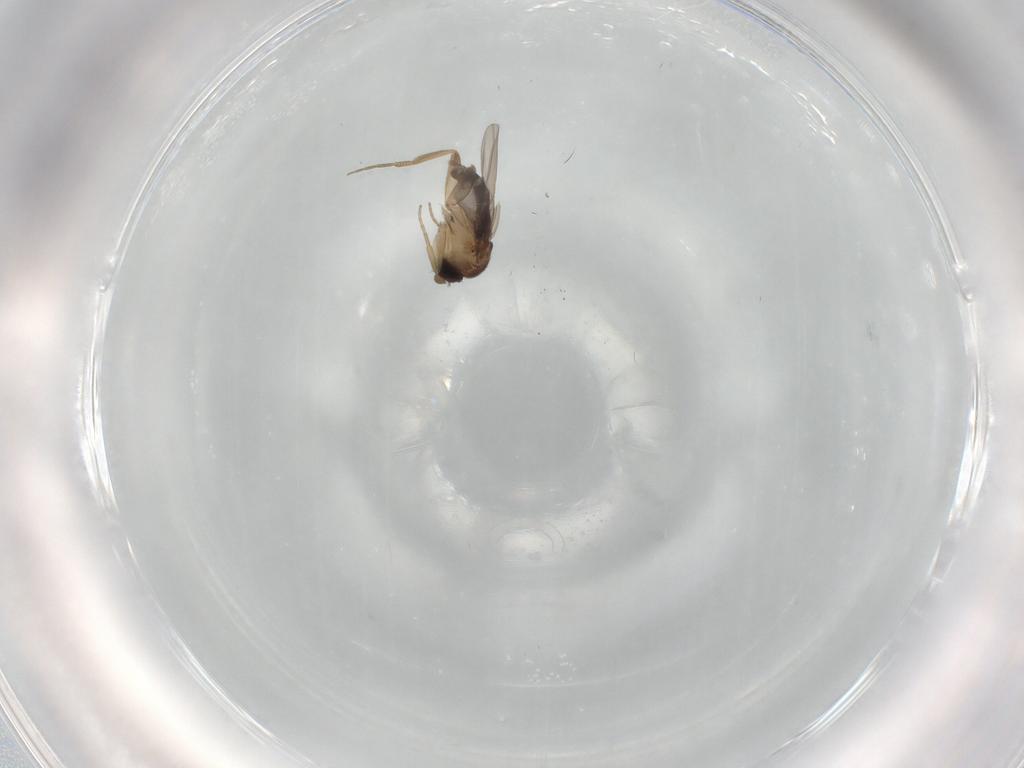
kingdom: Animalia
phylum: Arthropoda
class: Insecta
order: Diptera
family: Phoridae
